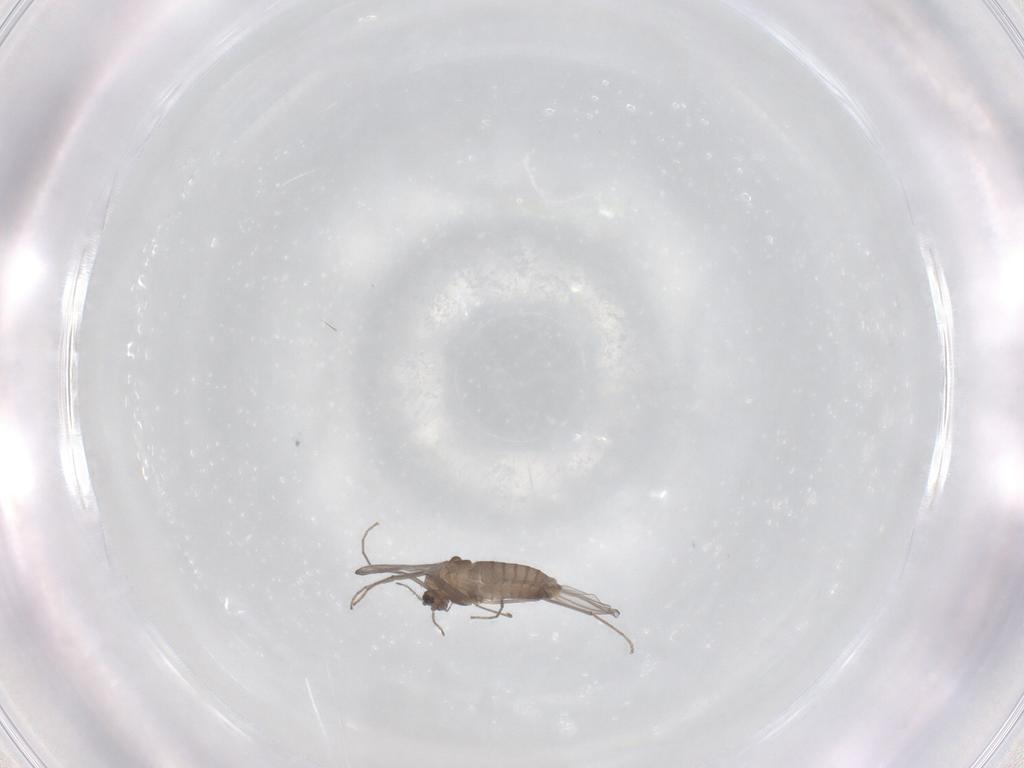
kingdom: Animalia
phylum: Arthropoda
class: Insecta
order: Diptera
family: Chironomidae
